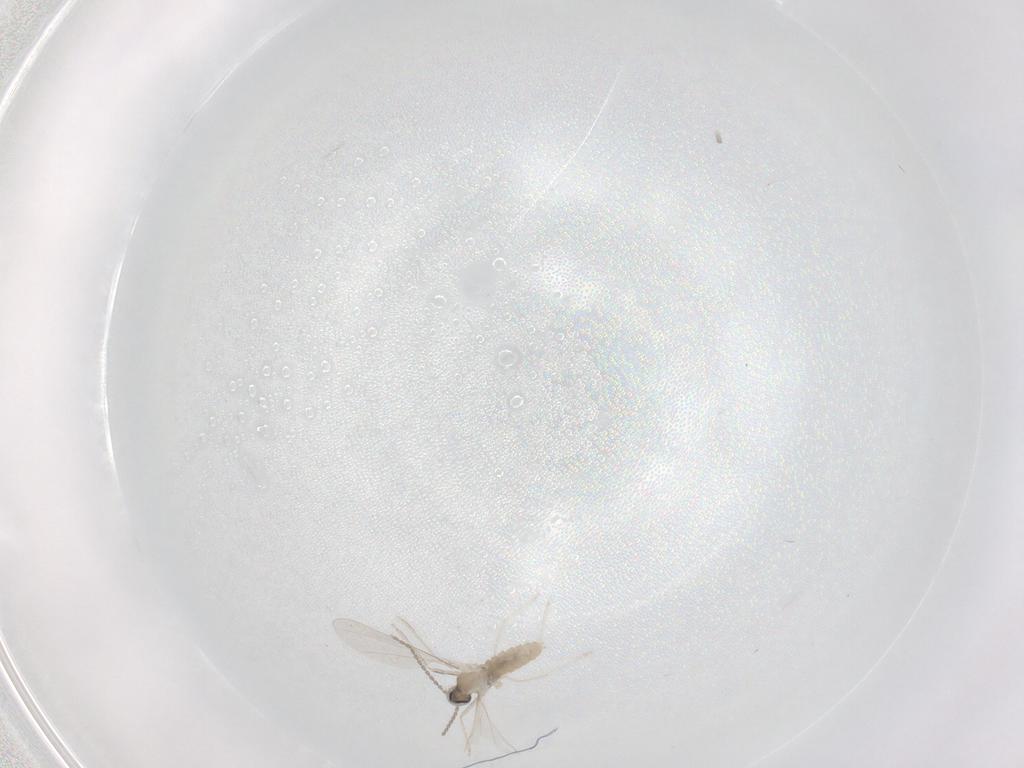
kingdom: Animalia
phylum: Arthropoda
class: Insecta
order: Diptera
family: Cecidomyiidae
